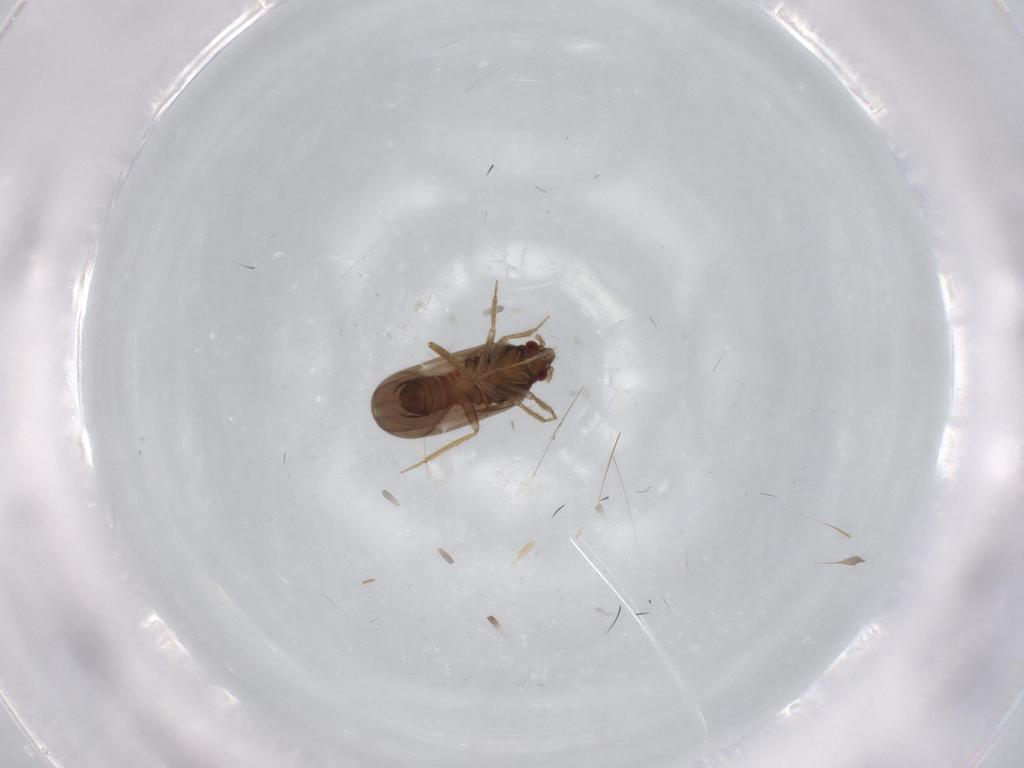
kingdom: Animalia
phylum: Arthropoda
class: Insecta
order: Hemiptera
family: Ceratocombidae
